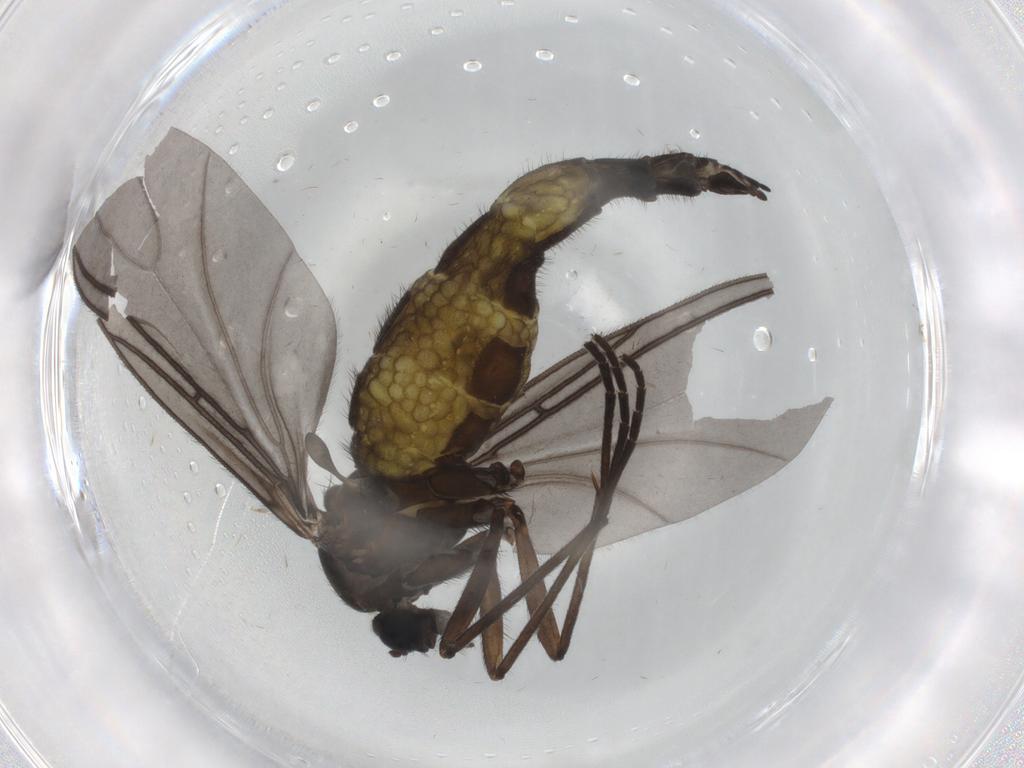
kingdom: Animalia
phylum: Arthropoda
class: Insecta
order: Diptera
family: Sciaridae
